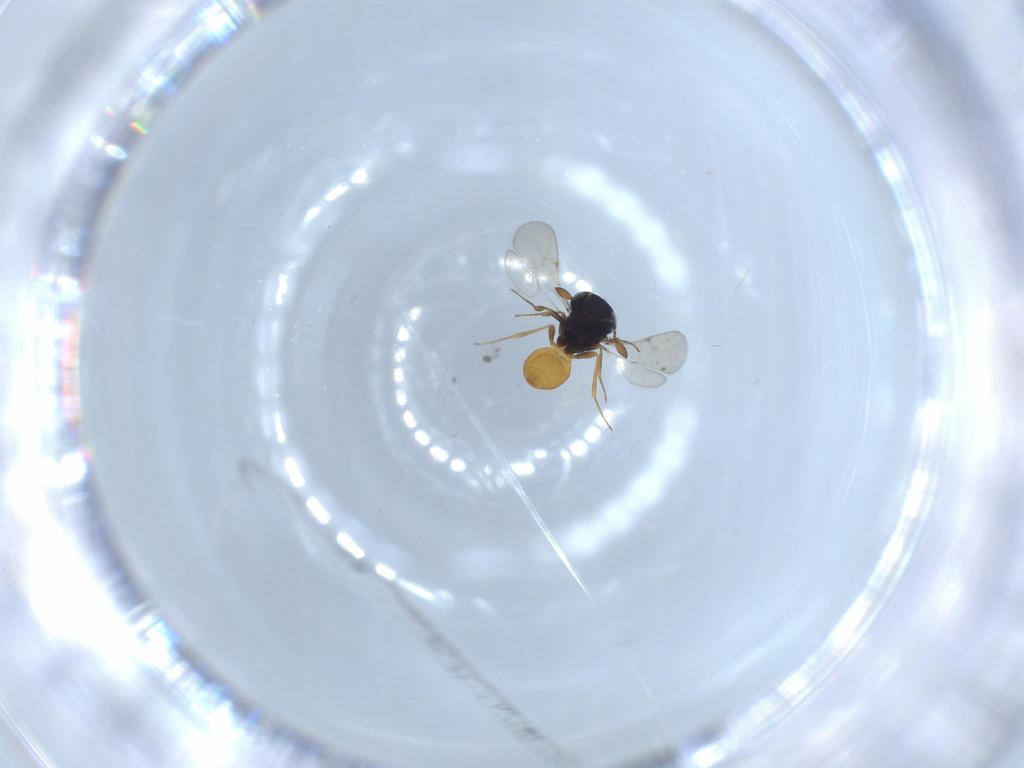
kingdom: Animalia
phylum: Arthropoda
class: Insecta
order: Hymenoptera
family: Scelionidae
